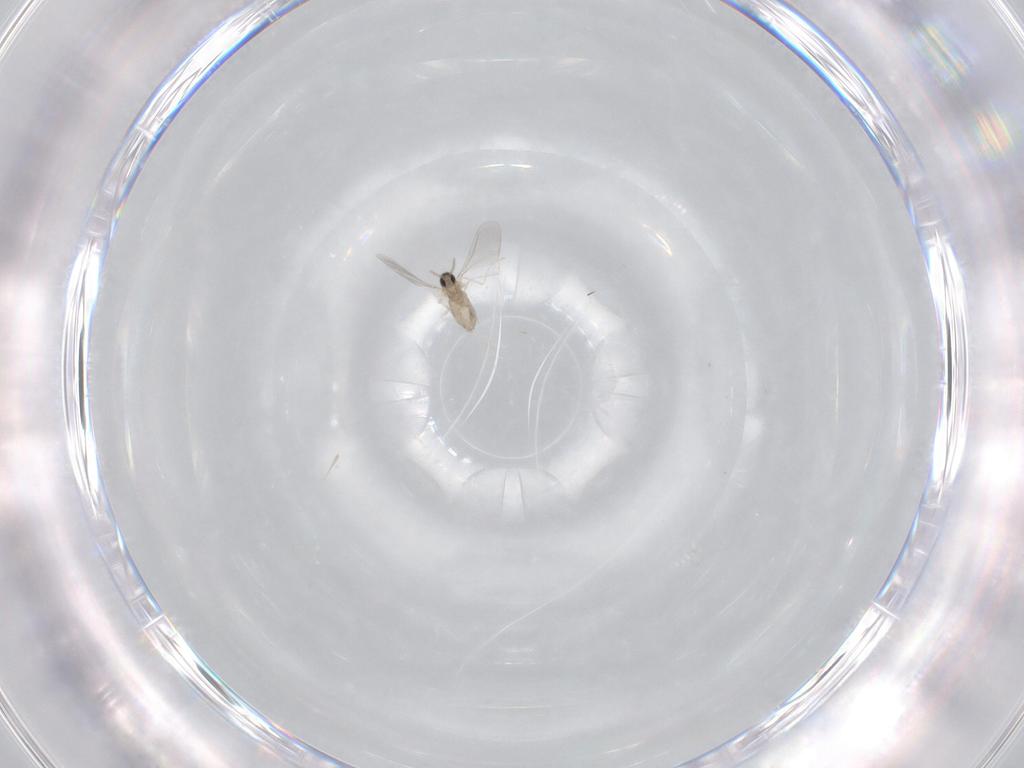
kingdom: Animalia
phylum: Arthropoda
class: Insecta
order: Diptera
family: Cecidomyiidae
